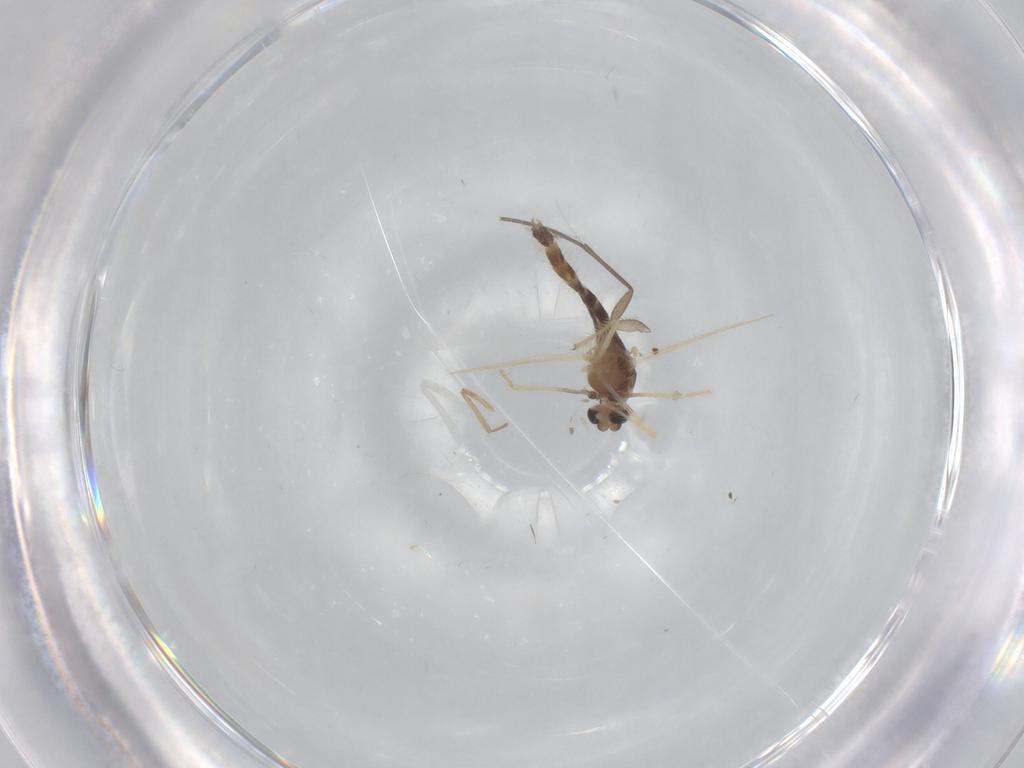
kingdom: Animalia
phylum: Arthropoda
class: Insecta
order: Diptera
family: Chironomidae
